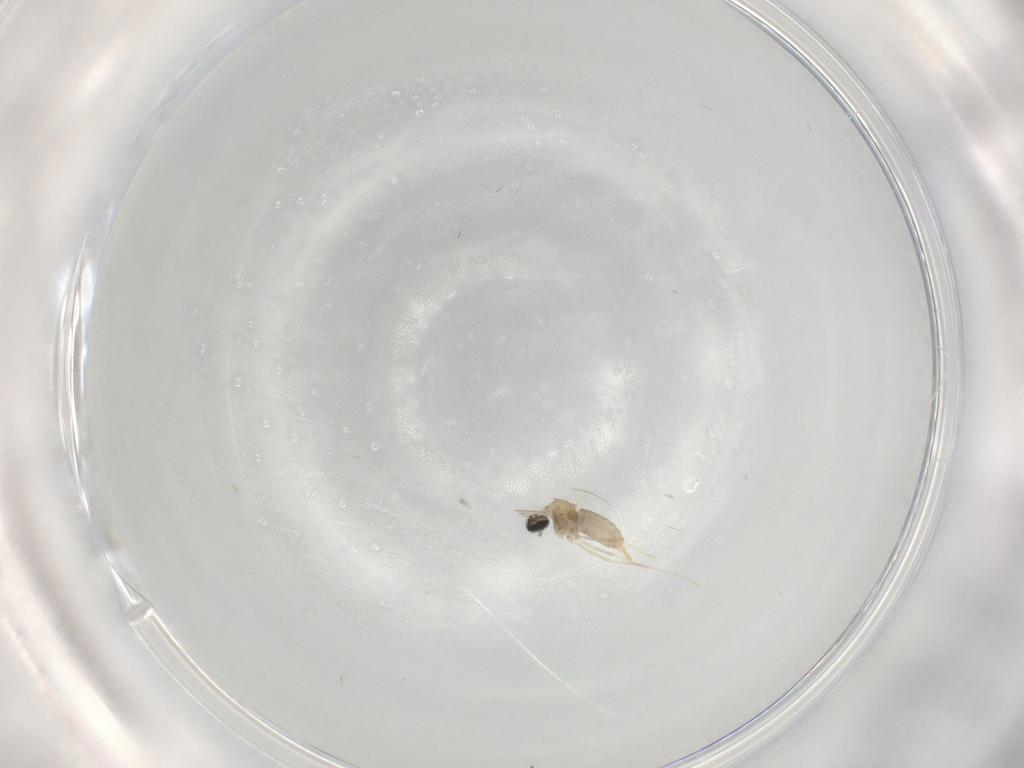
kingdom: Animalia
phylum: Arthropoda
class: Insecta
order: Diptera
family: Cecidomyiidae
